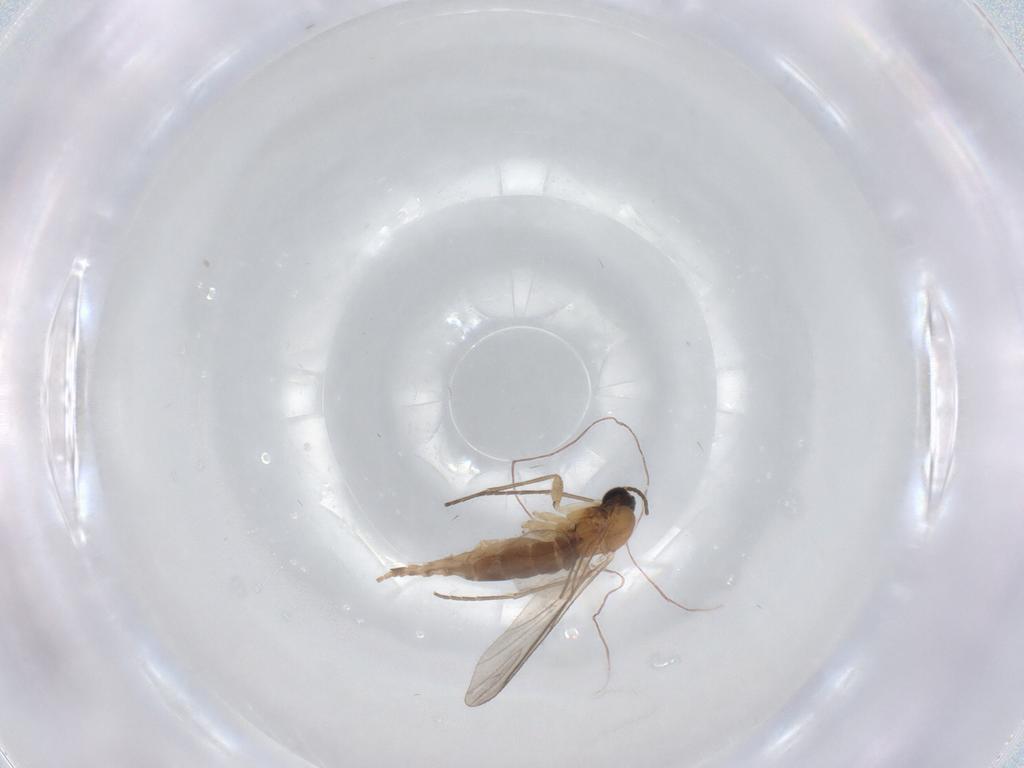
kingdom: Animalia
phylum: Arthropoda
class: Insecta
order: Diptera
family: Sciaridae
